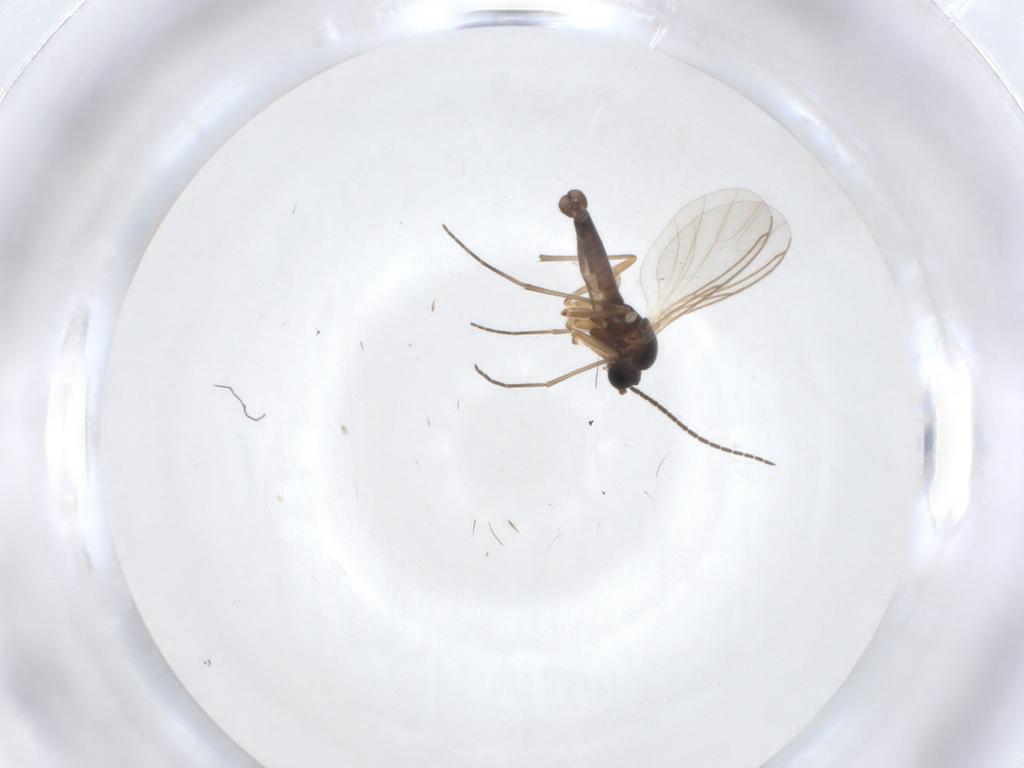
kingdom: Animalia
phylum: Arthropoda
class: Insecta
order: Diptera
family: Sciaridae
